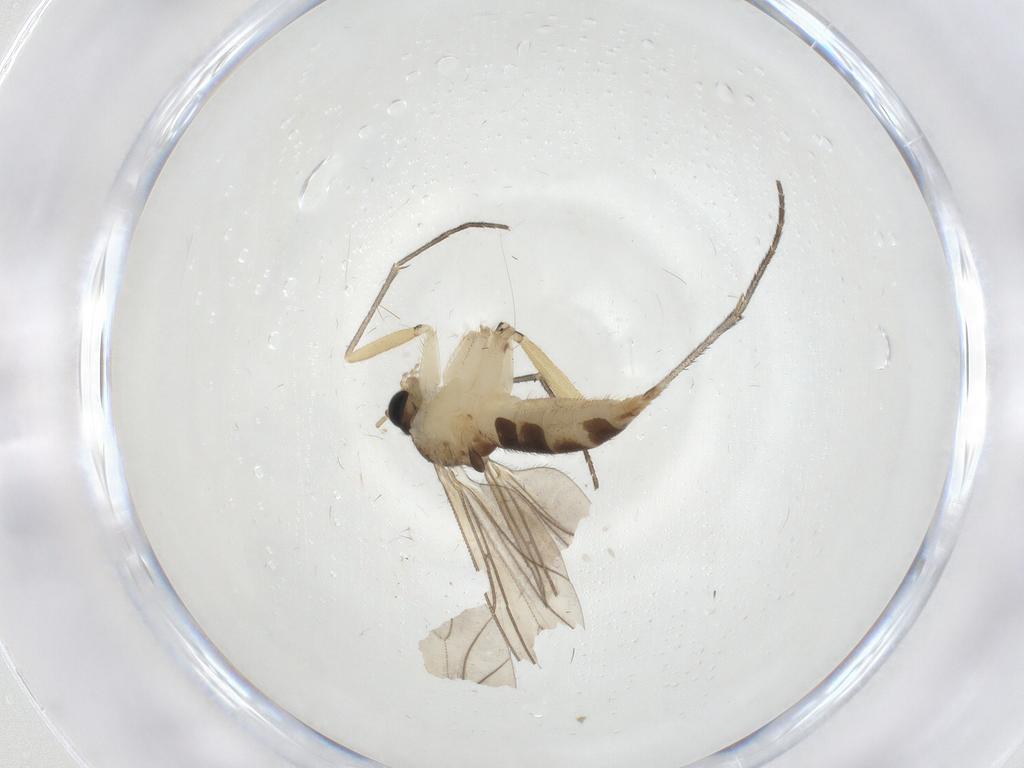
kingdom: Animalia
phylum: Arthropoda
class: Insecta
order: Diptera
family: Sciaridae
